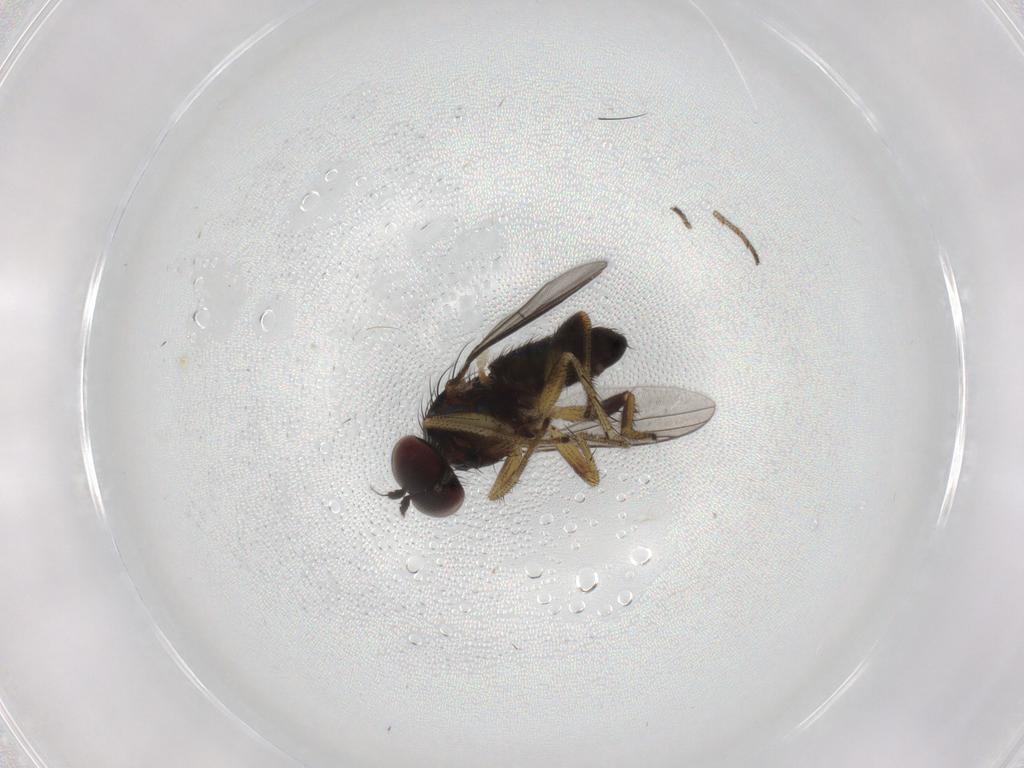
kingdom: Animalia
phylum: Arthropoda
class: Insecta
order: Diptera
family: Dolichopodidae
